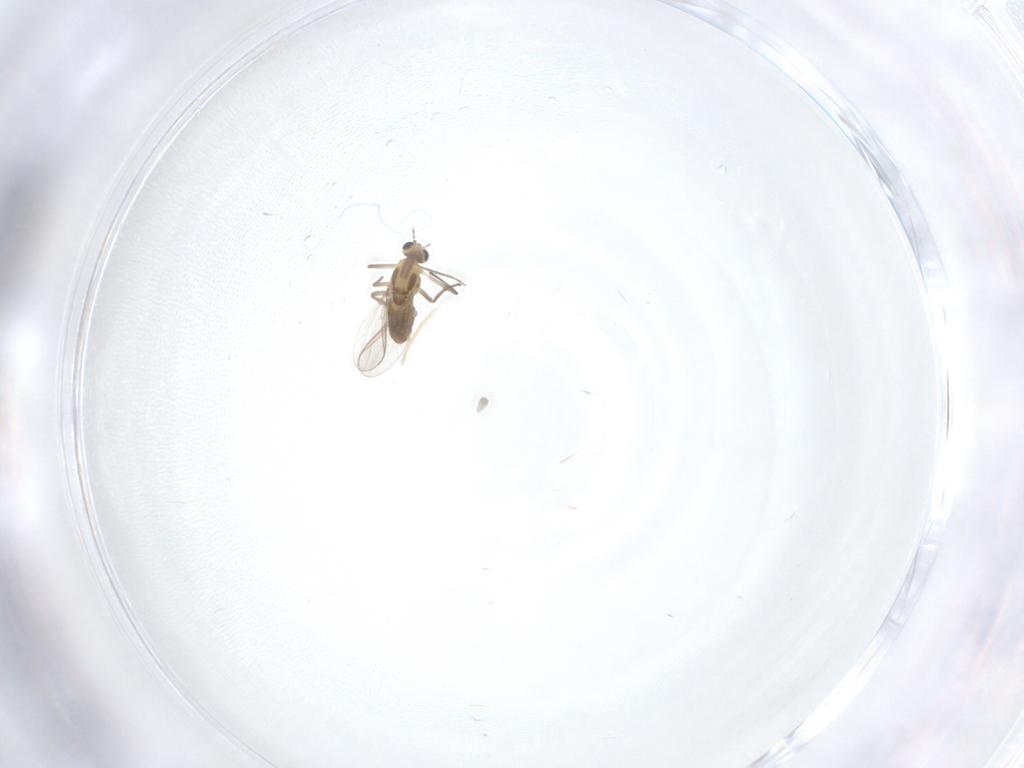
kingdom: Animalia
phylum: Arthropoda
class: Insecta
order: Diptera
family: Chironomidae
